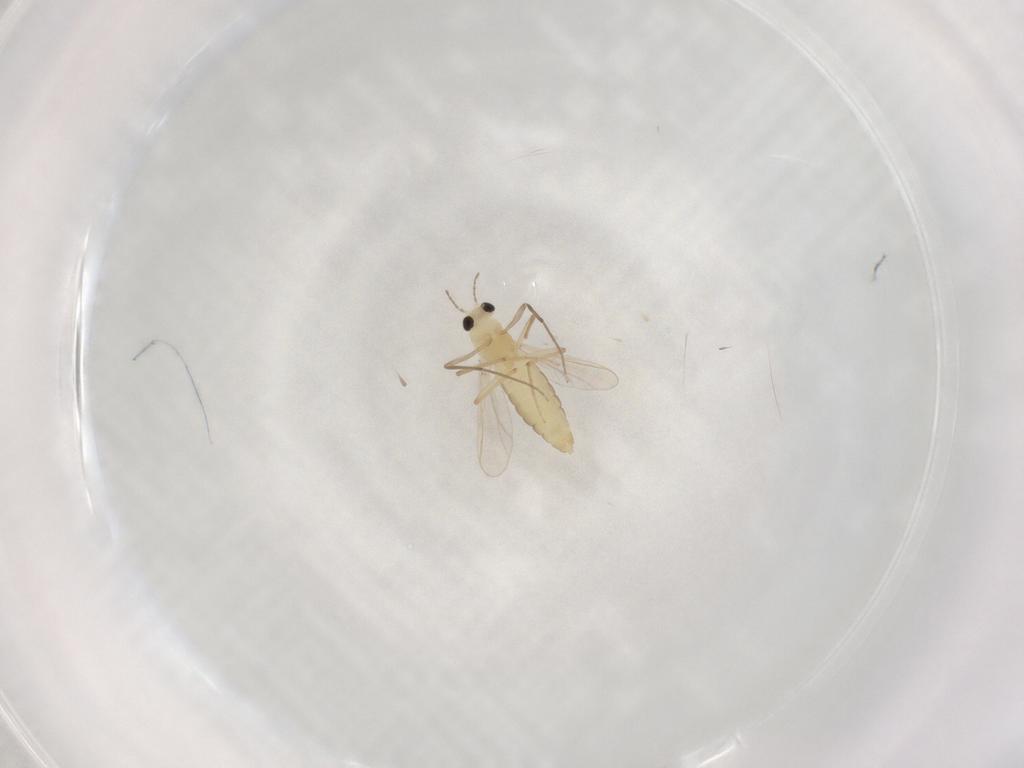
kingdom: Animalia
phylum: Arthropoda
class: Insecta
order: Diptera
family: Chironomidae
